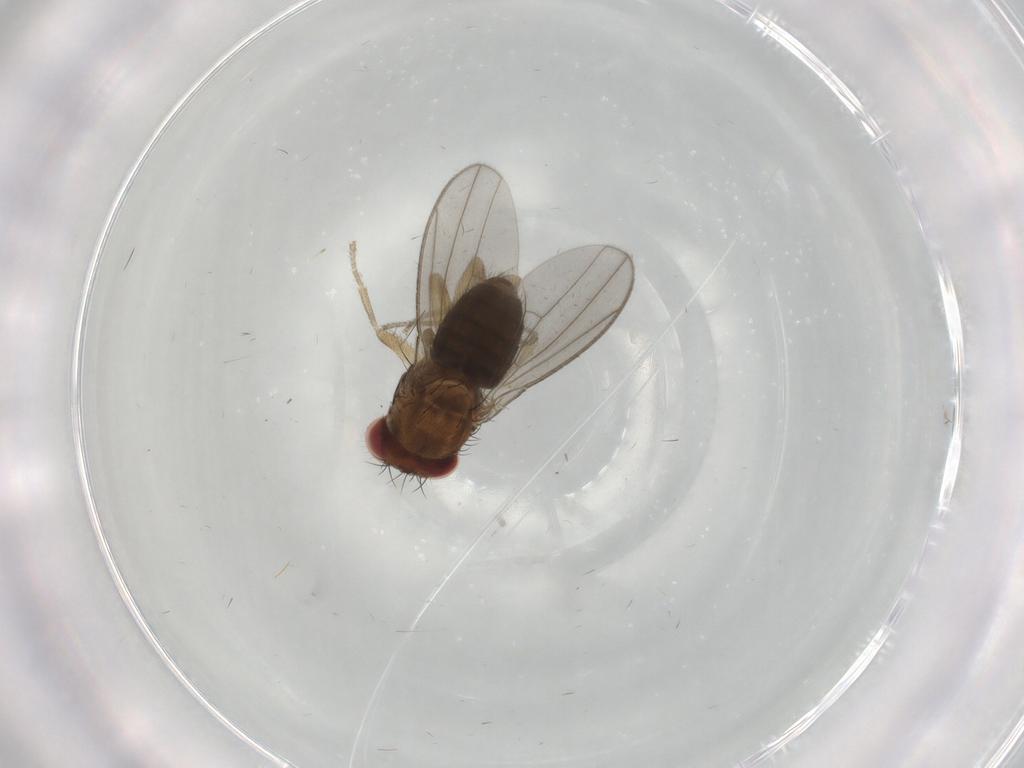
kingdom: Animalia
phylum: Arthropoda
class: Insecta
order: Diptera
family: Drosophilidae
